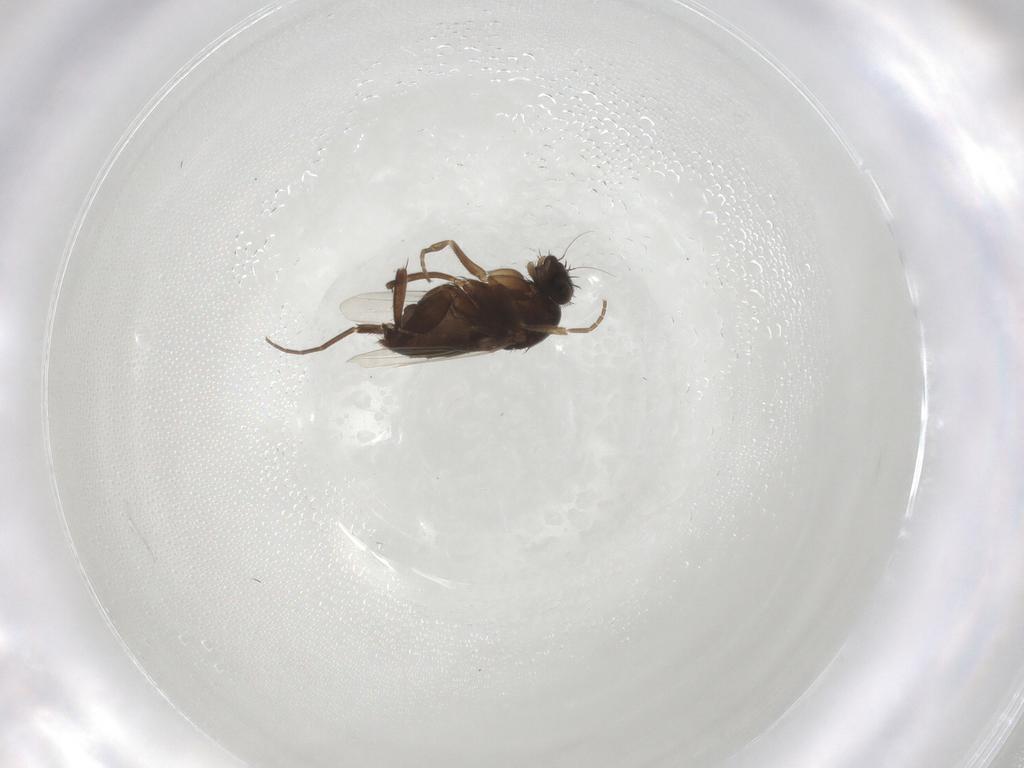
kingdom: Animalia
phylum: Arthropoda
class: Insecta
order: Diptera
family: Phoridae
